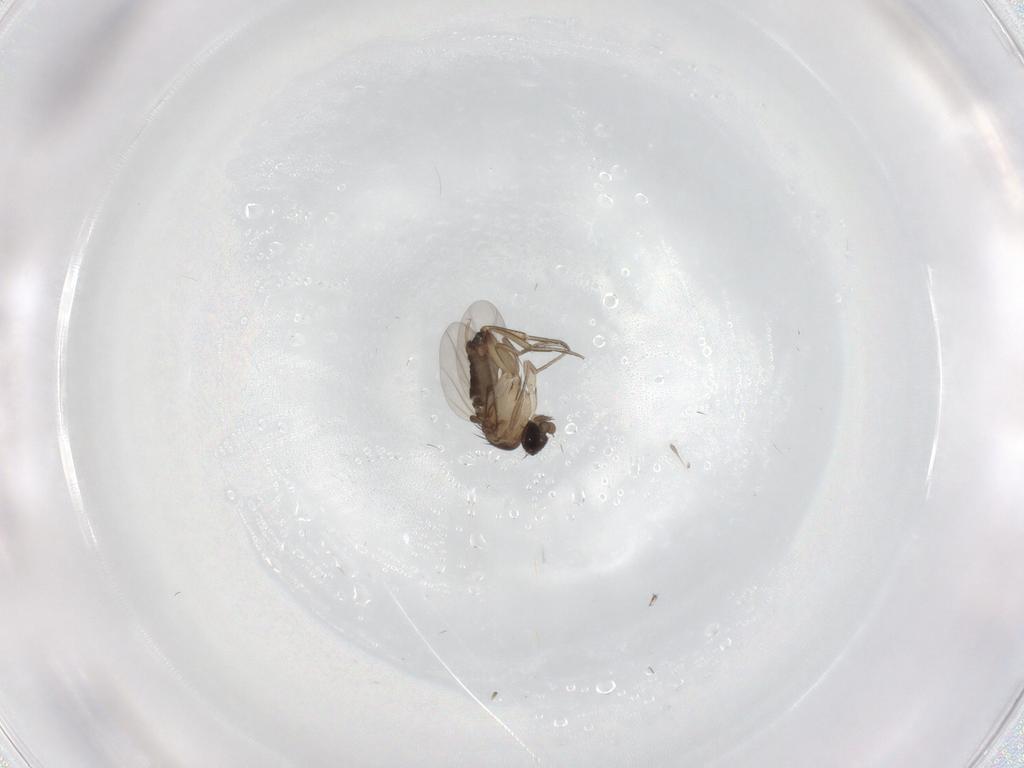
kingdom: Animalia
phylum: Arthropoda
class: Insecta
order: Diptera
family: Phoridae
